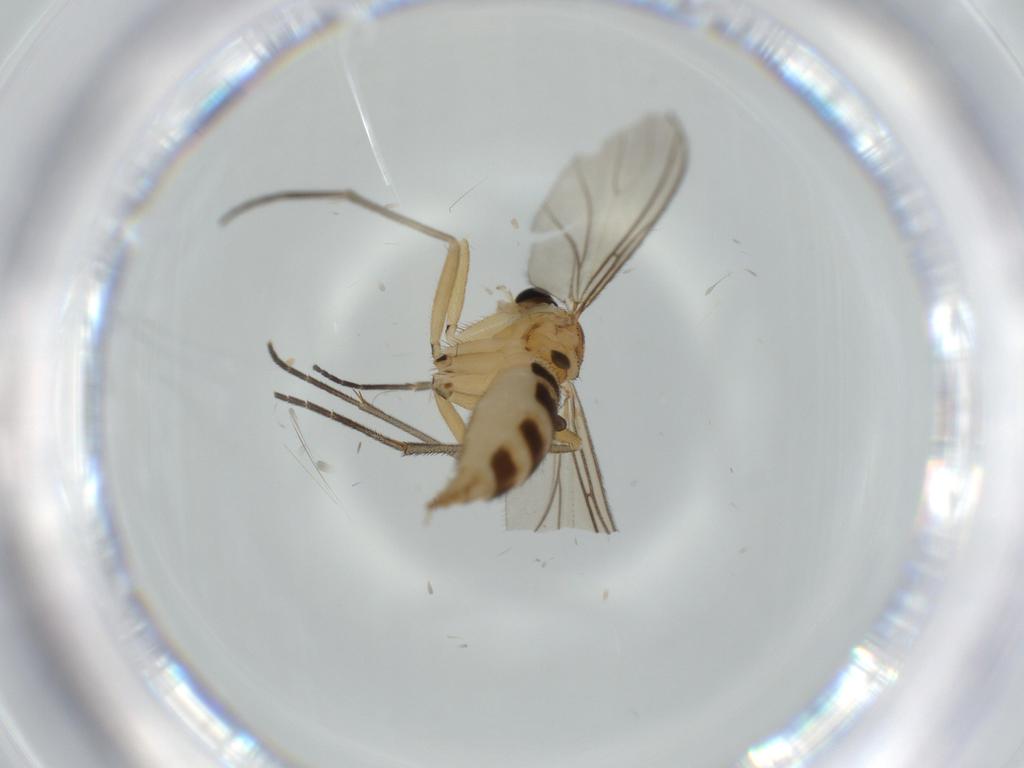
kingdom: Animalia
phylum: Arthropoda
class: Insecta
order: Diptera
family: Sciaridae
